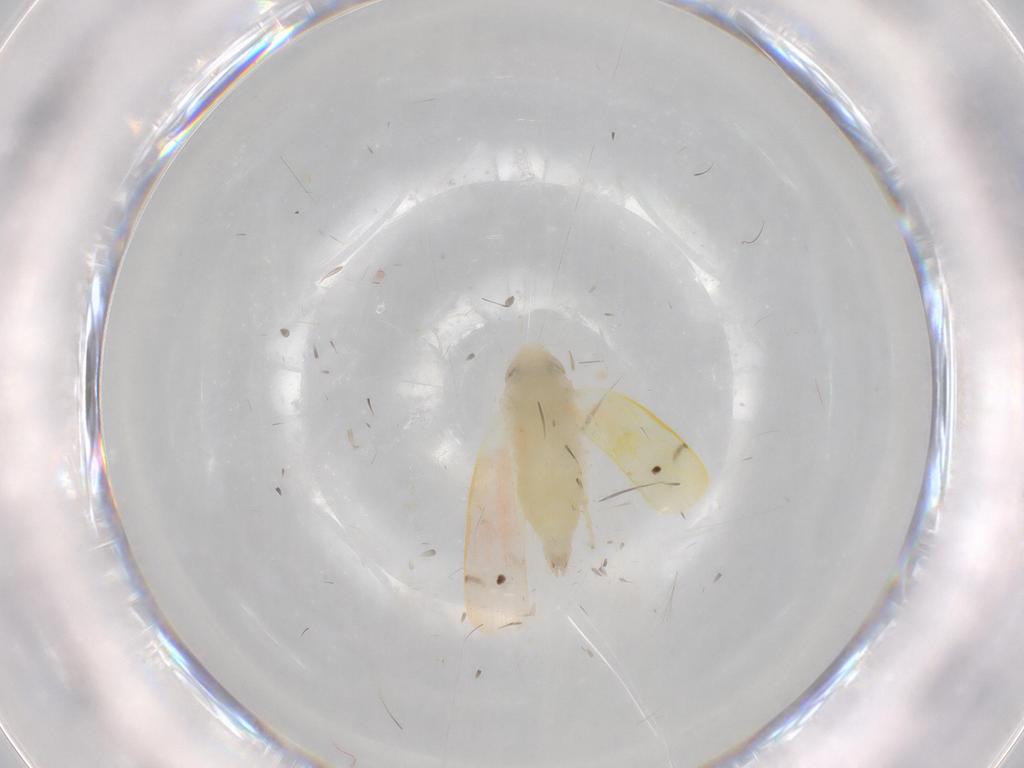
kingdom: Animalia
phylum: Arthropoda
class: Insecta
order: Hemiptera
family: Cicadellidae
